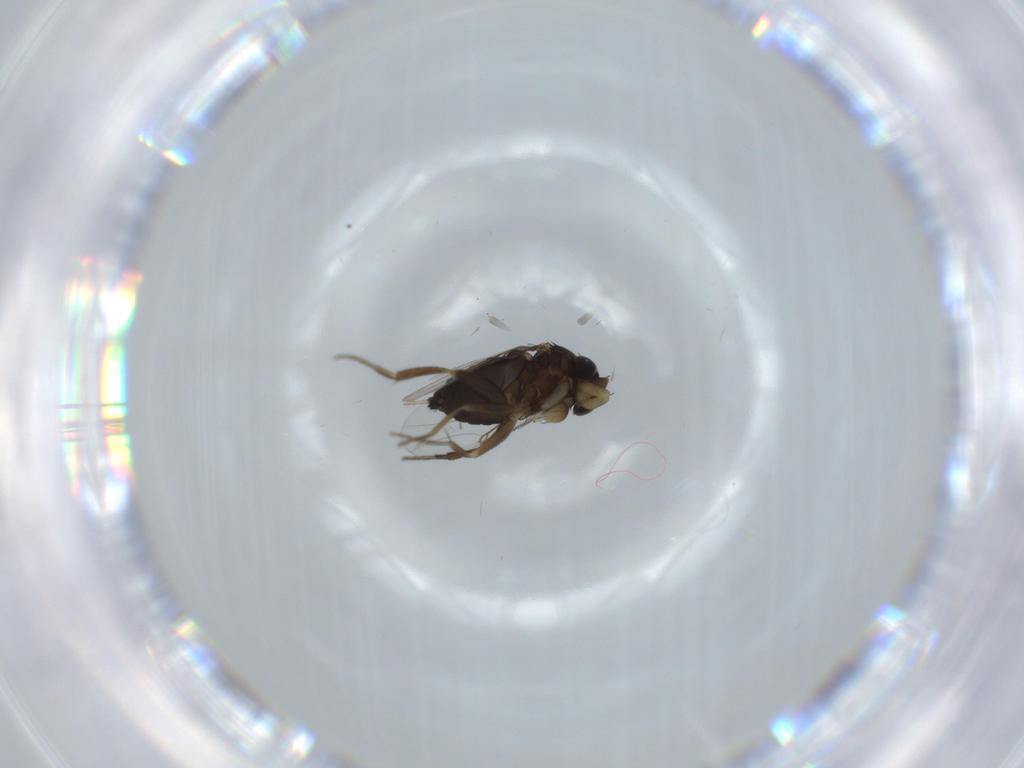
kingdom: Animalia
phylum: Arthropoda
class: Insecta
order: Diptera
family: Phoridae
